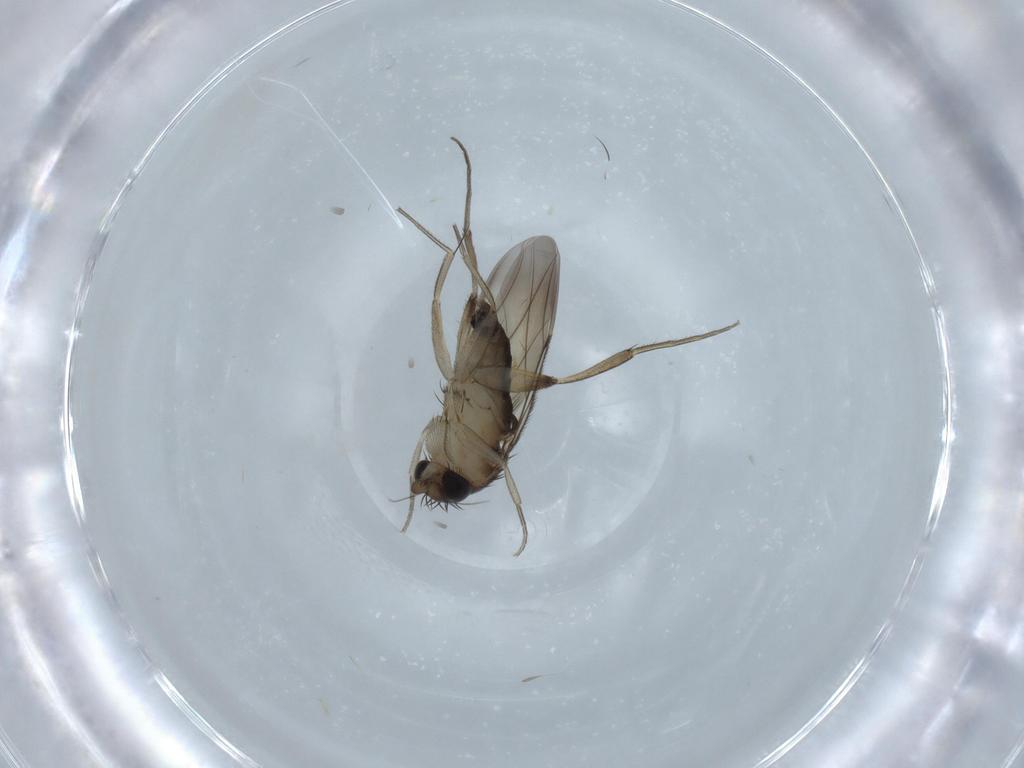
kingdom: Animalia
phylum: Arthropoda
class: Insecta
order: Diptera
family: Phoridae
